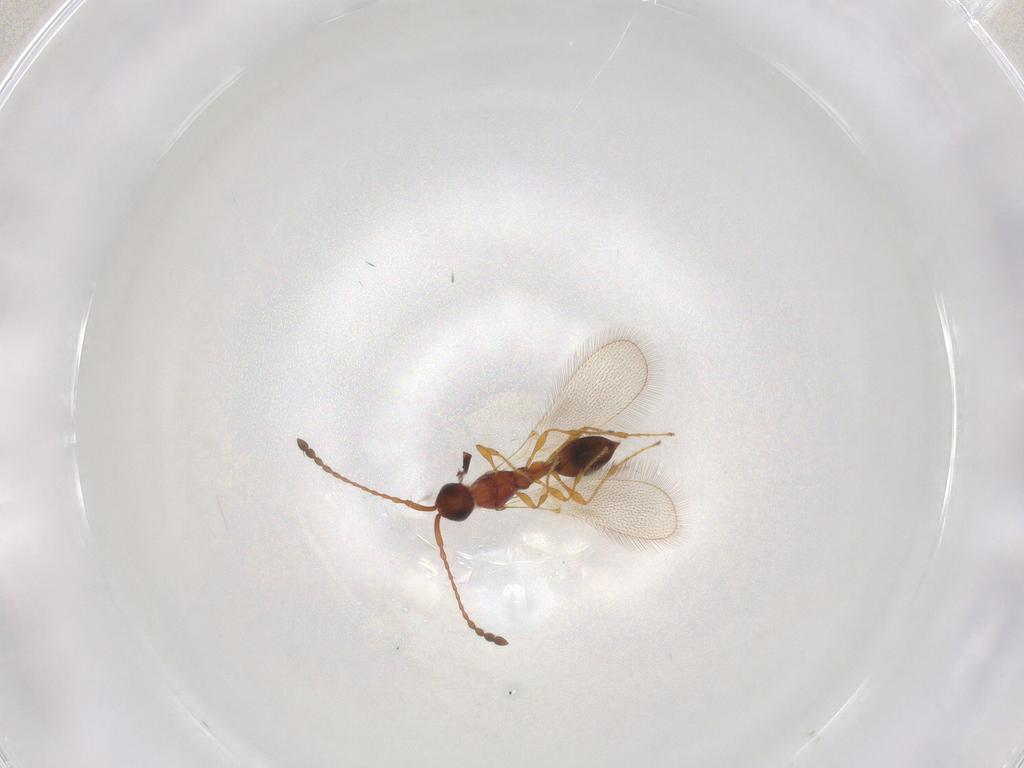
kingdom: Animalia
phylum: Arthropoda
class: Insecta
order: Hymenoptera
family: Diapriidae
